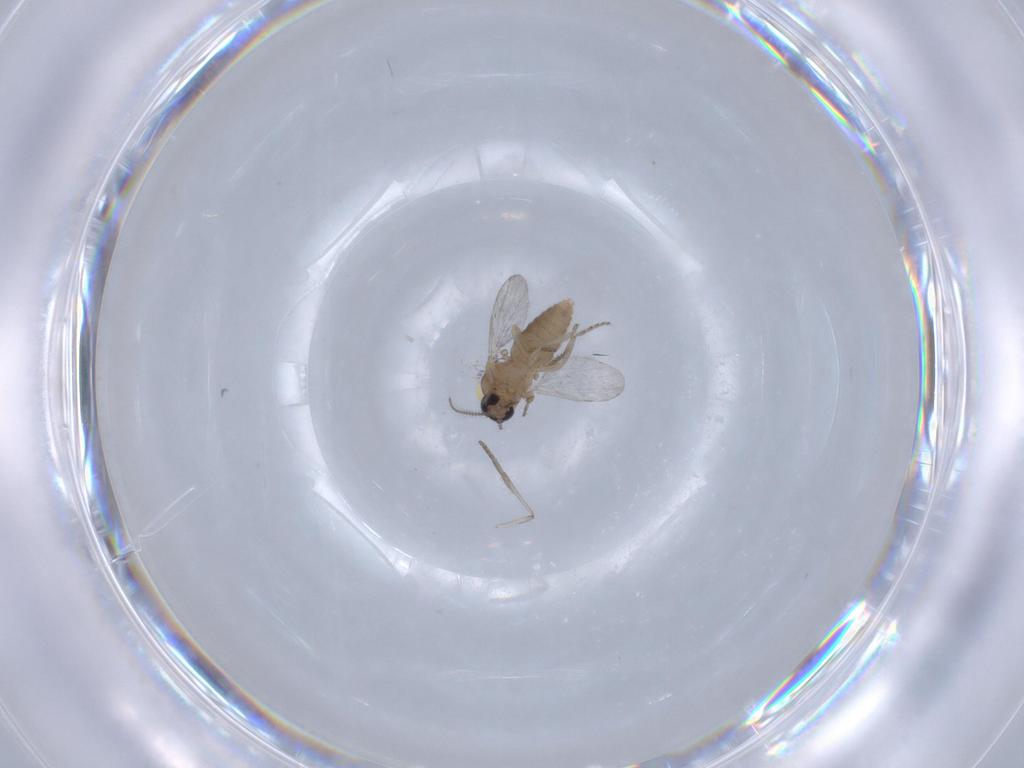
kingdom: Animalia
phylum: Arthropoda
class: Insecta
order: Diptera
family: Ceratopogonidae
